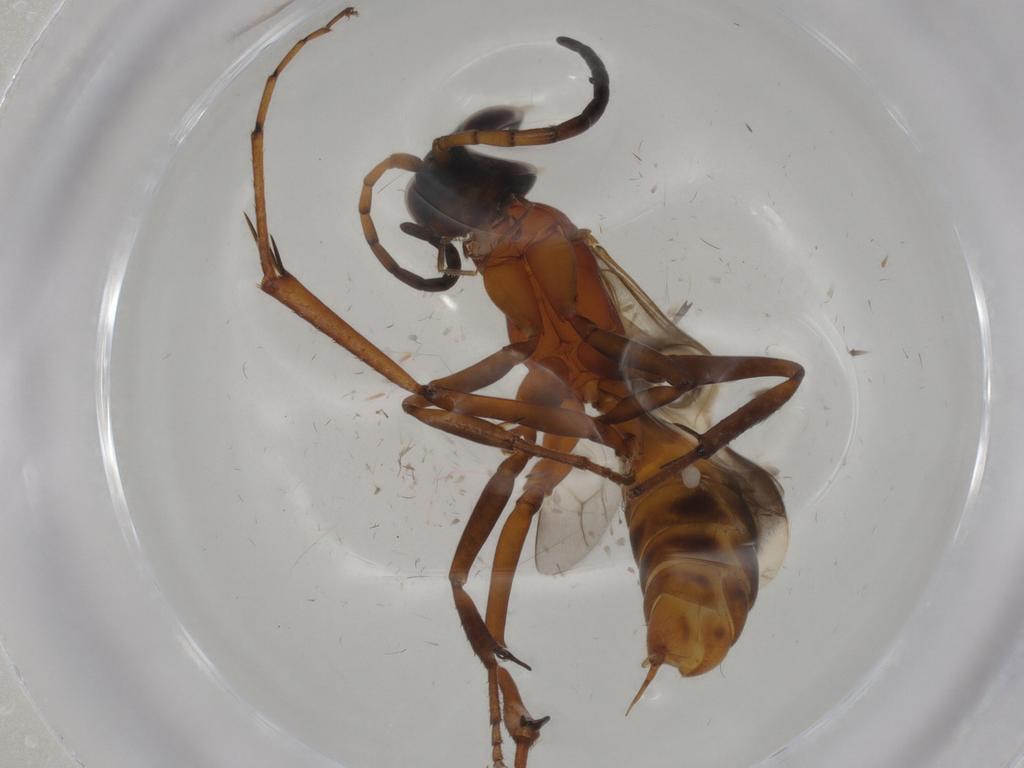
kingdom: Animalia
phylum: Arthropoda
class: Insecta
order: Hymenoptera
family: Pompilidae
